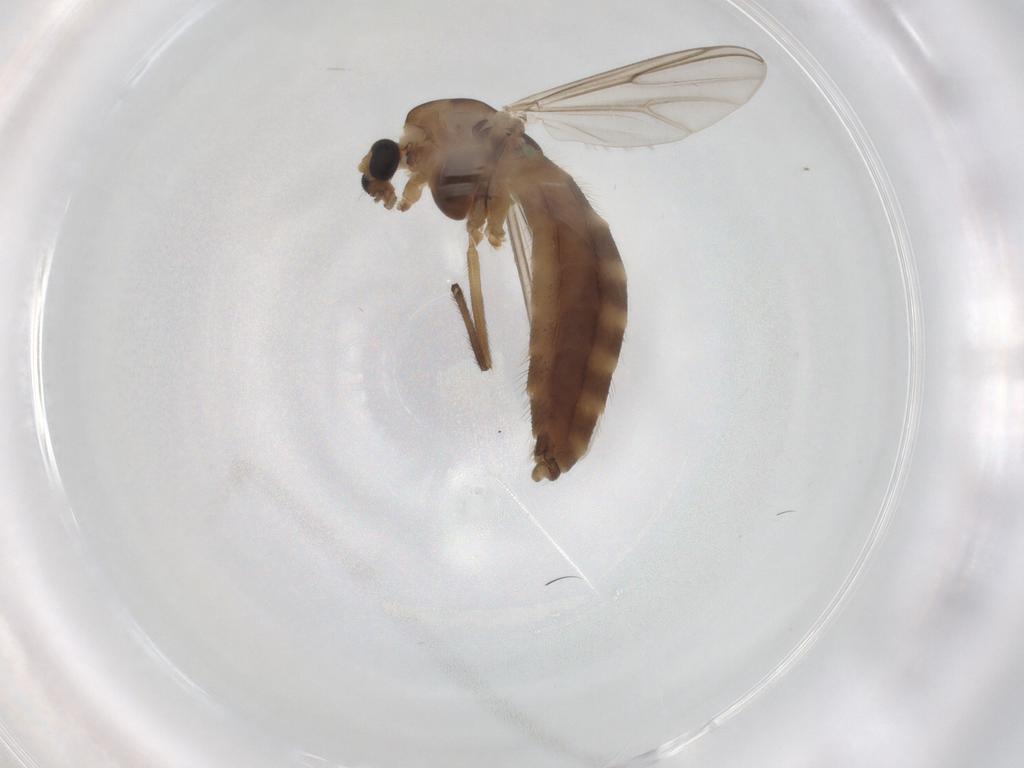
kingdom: Animalia
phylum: Arthropoda
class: Insecta
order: Diptera
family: Chironomidae
